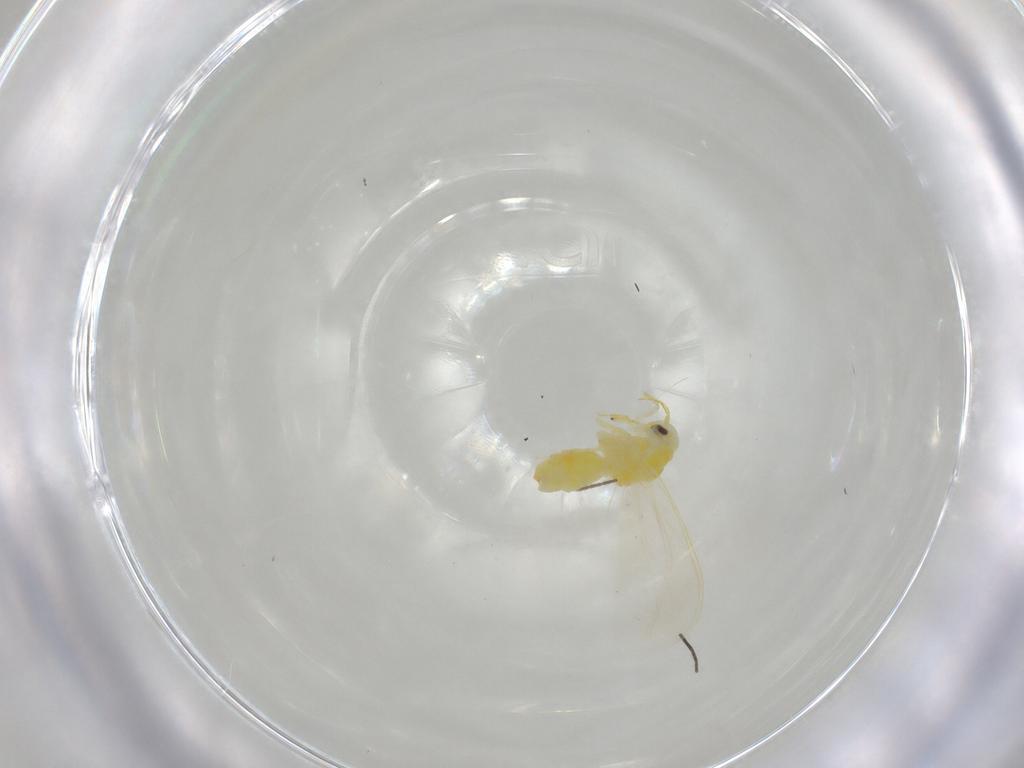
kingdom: Animalia
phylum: Arthropoda
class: Insecta
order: Hemiptera
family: Aleyrodidae
